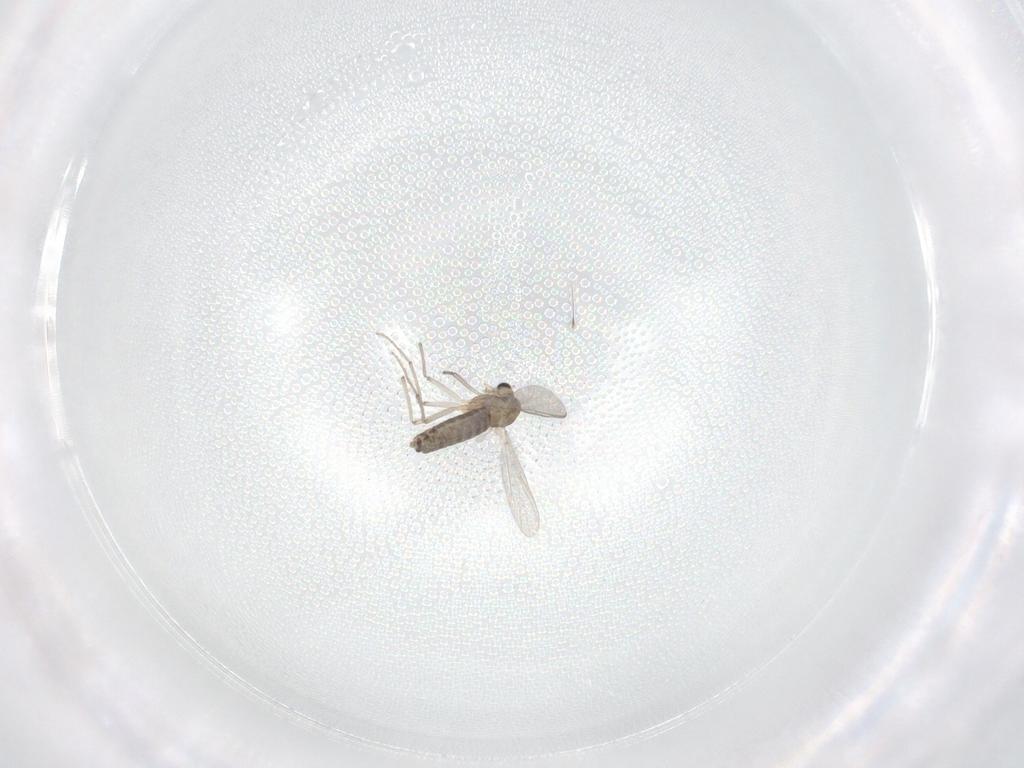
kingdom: Animalia
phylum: Arthropoda
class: Insecta
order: Diptera
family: Chironomidae
